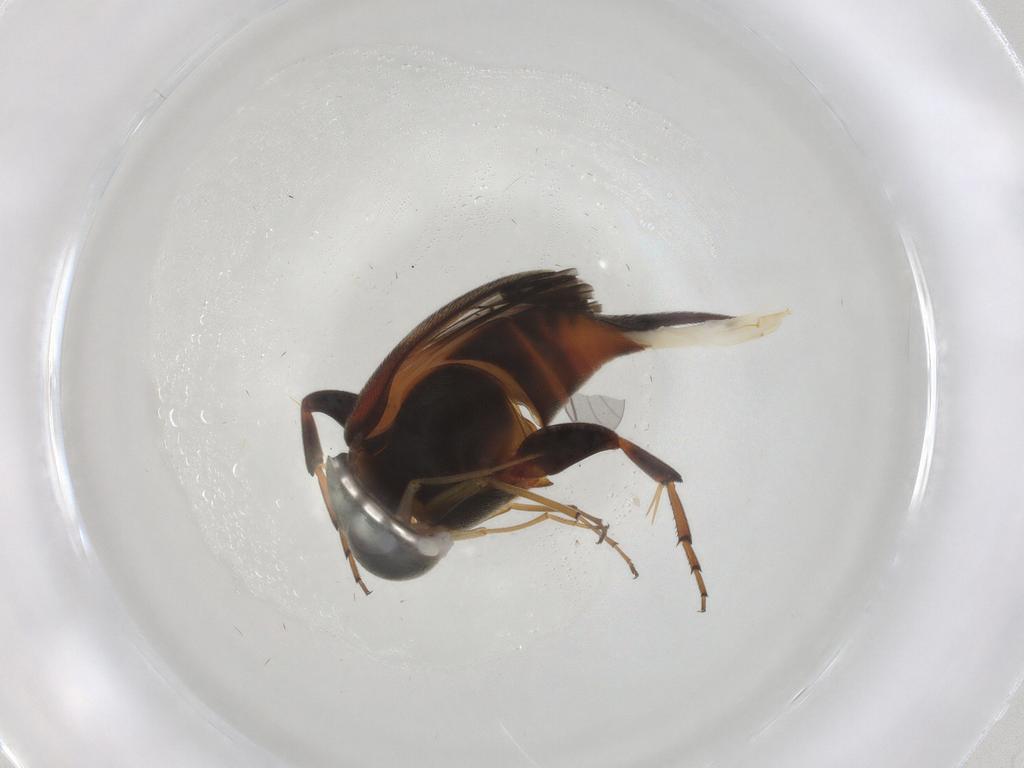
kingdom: Animalia
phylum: Arthropoda
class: Insecta
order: Coleoptera
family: Mordellidae
